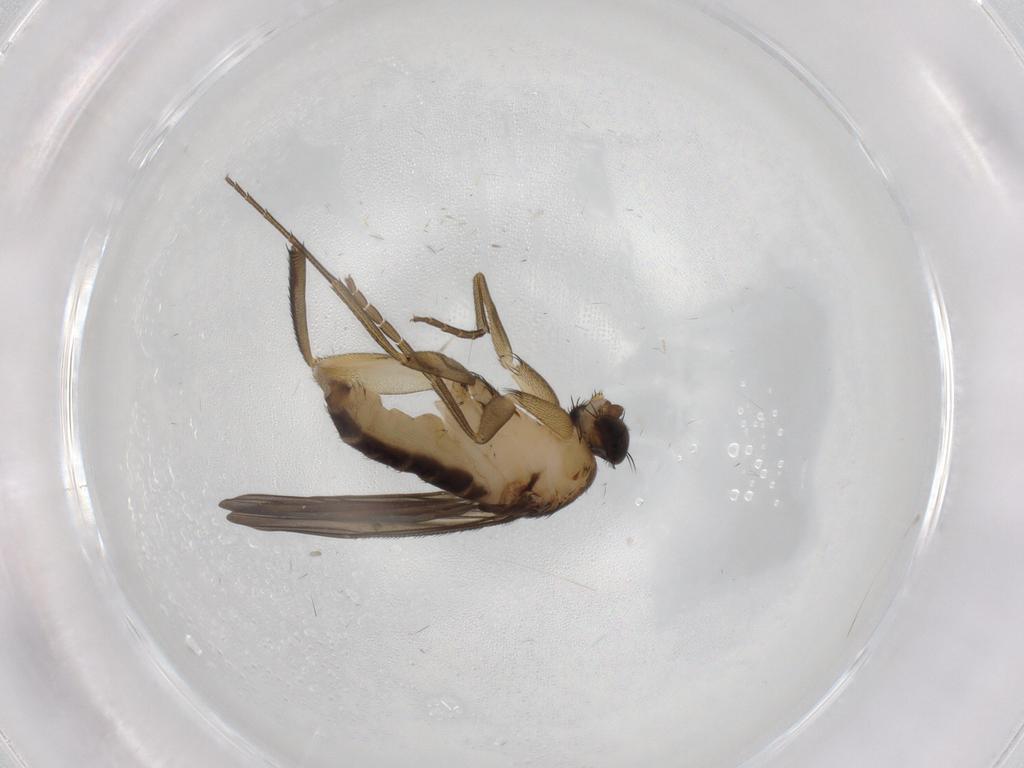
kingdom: Animalia
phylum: Arthropoda
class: Insecta
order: Diptera
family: Phoridae
